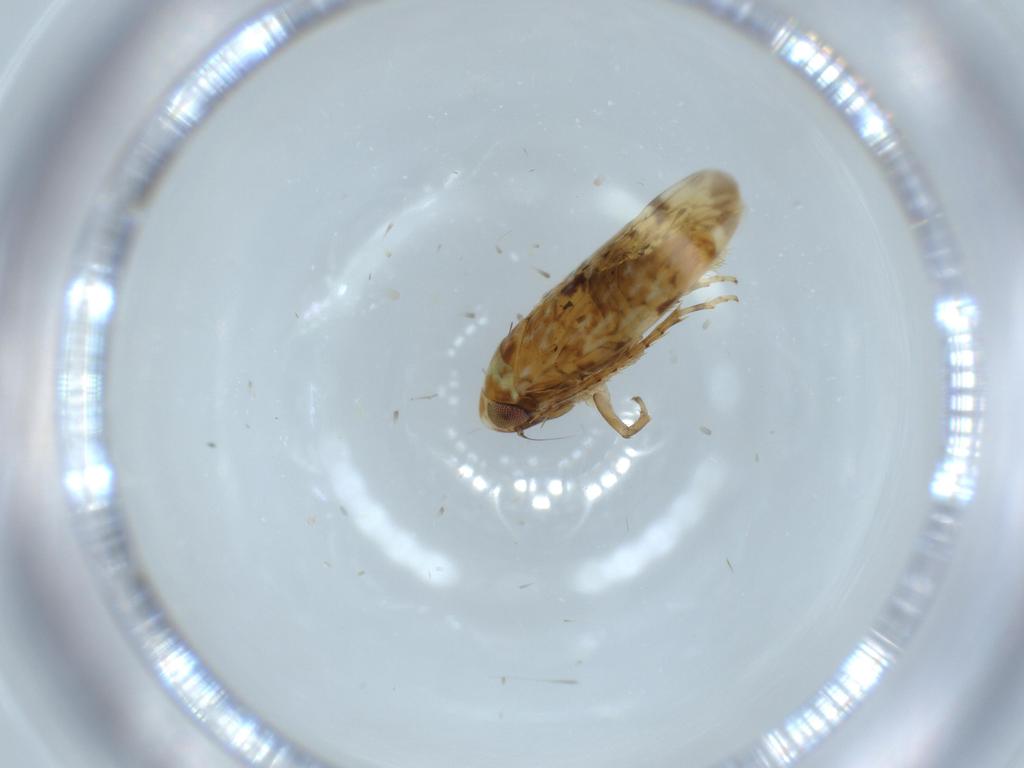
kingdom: Animalia
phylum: Arthropoda
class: Insecta
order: Hemiptera
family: Cicadellidae
